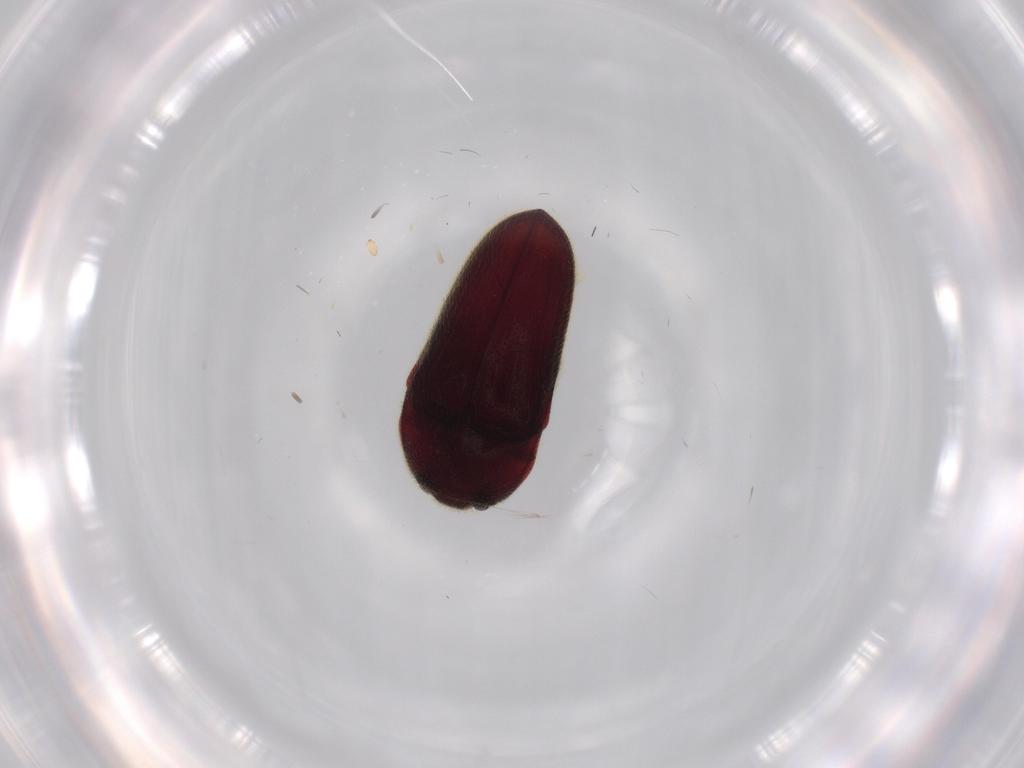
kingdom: Animalia
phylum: Arthropoda
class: Insecta
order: Coleoptera
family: Throscidae
